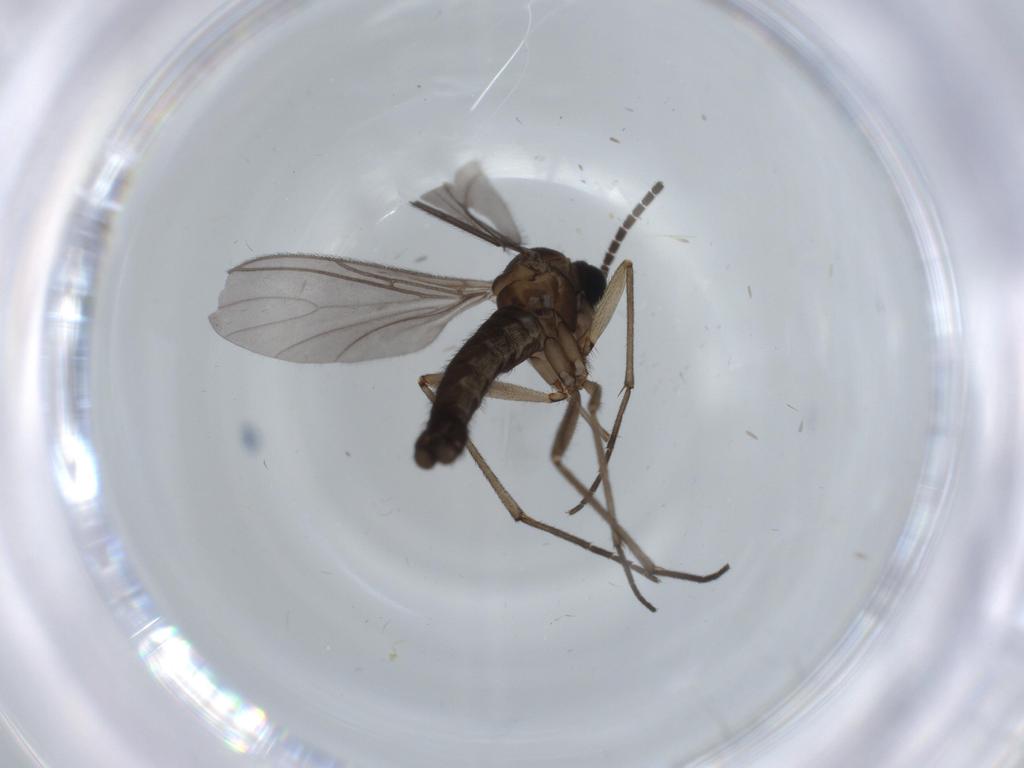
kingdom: Animalia
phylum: Arthropoda
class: Insecta
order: Diptera
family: Sciaridae
